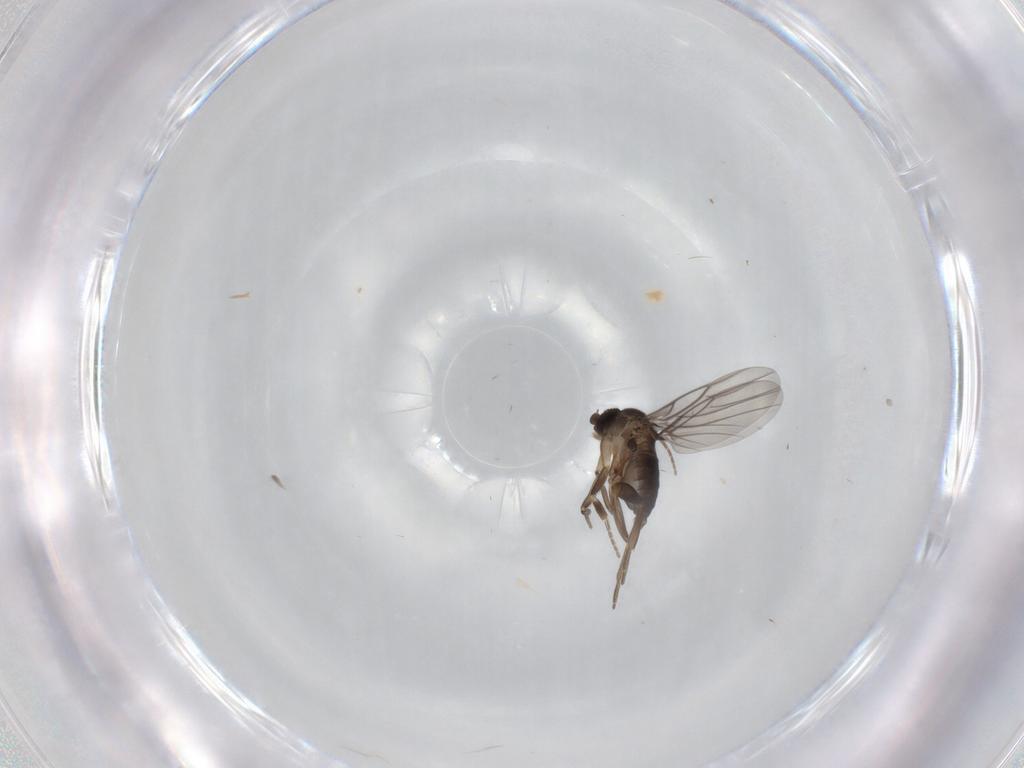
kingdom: Animalia
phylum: Arthropoda
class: Insecta
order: Diptera
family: Phoridae
